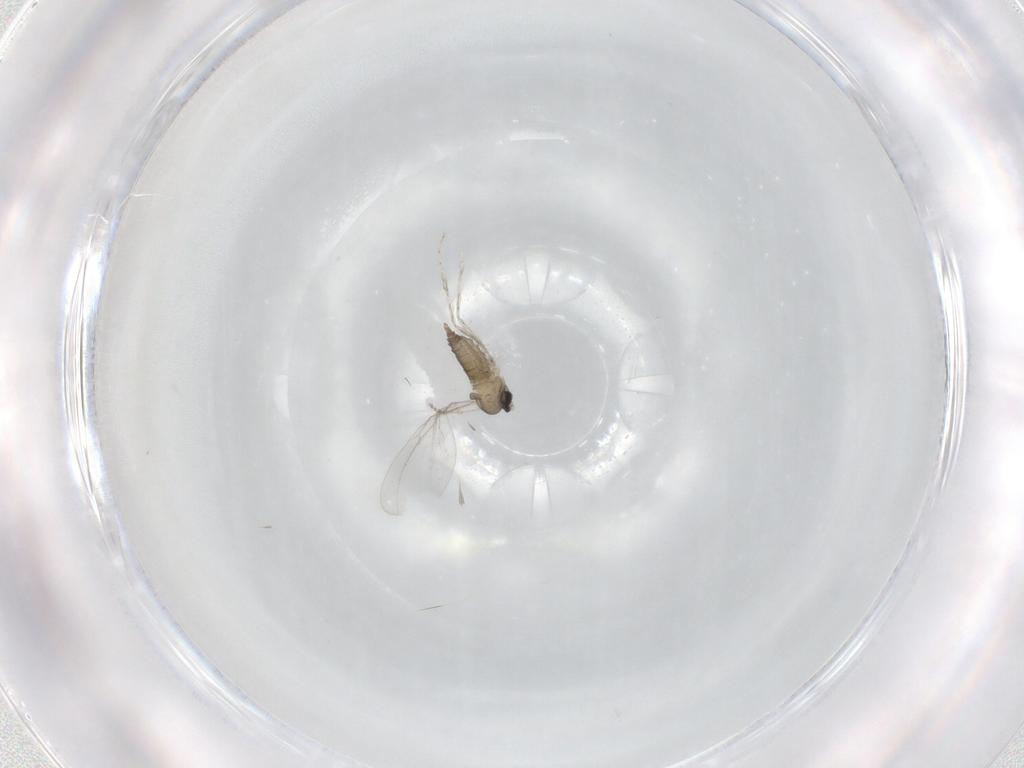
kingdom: Animalia
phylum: Arthropoda
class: Insecta
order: Diptera
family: Cecidomyiidae
